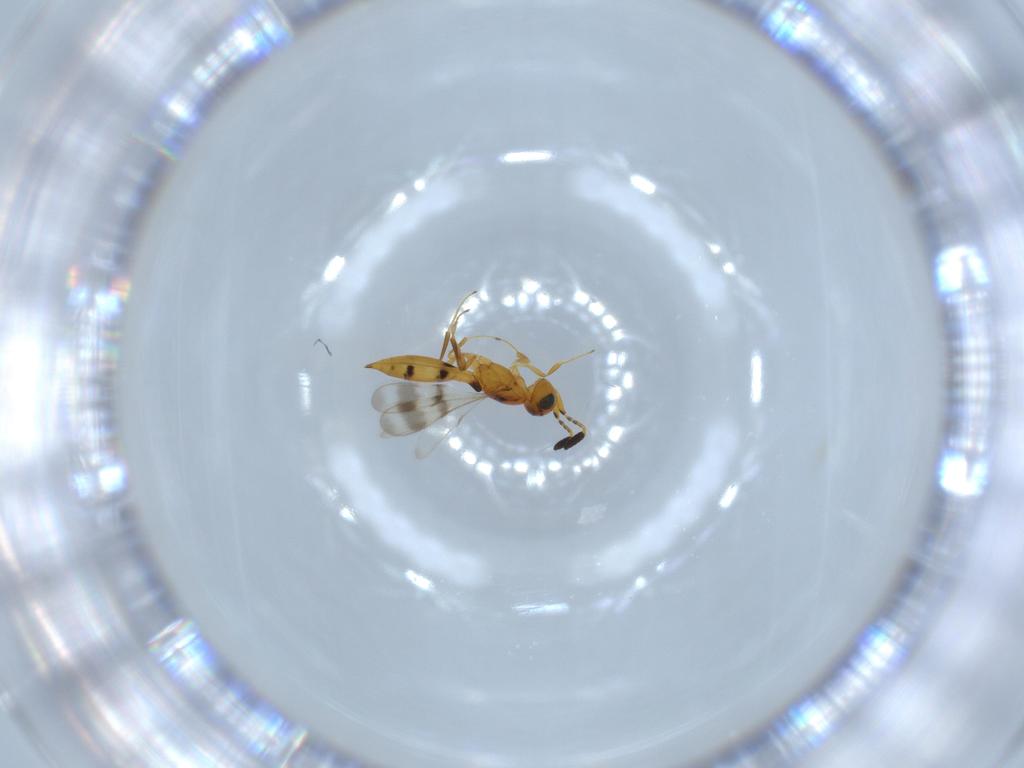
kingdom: Animalia
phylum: Arthropoda
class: Insecta
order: Hymenoptera
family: Scelionidae
